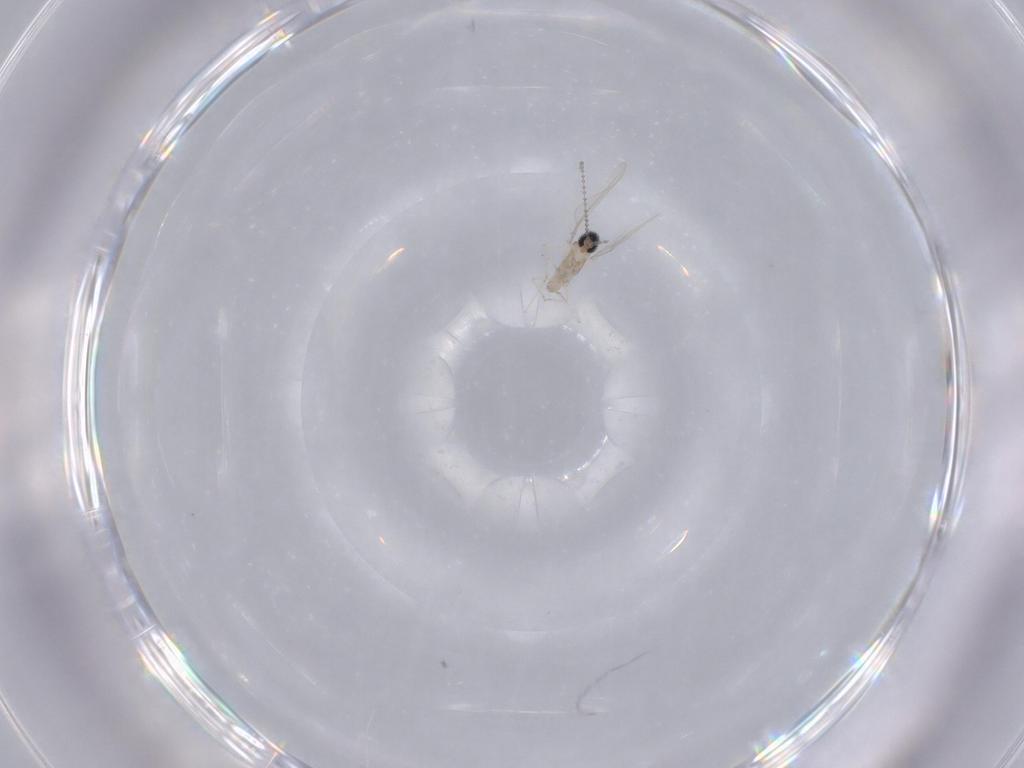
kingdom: Animalia
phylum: Arthropoda
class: Insecta
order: Diptera
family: Cecidomyiidae
